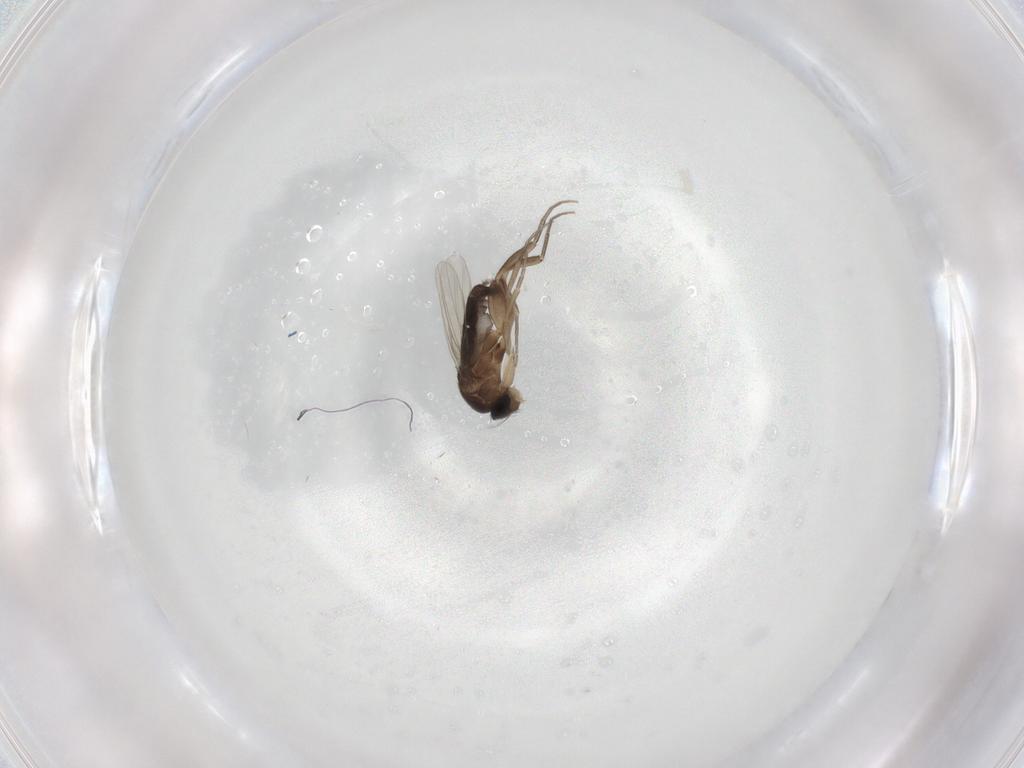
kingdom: Animalia
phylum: Arthropoda
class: Insecta
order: Diptera
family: Phoridae
